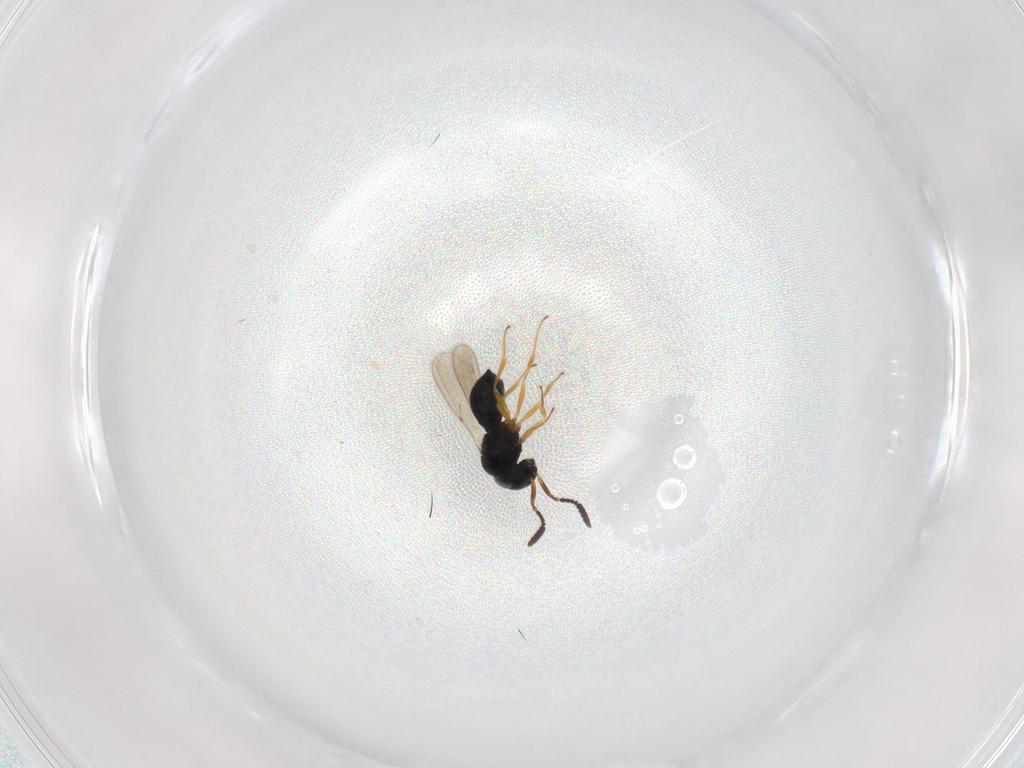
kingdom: Animalia
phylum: Arthropoda
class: Insecta
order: Hymenoptera
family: Scelionidae
